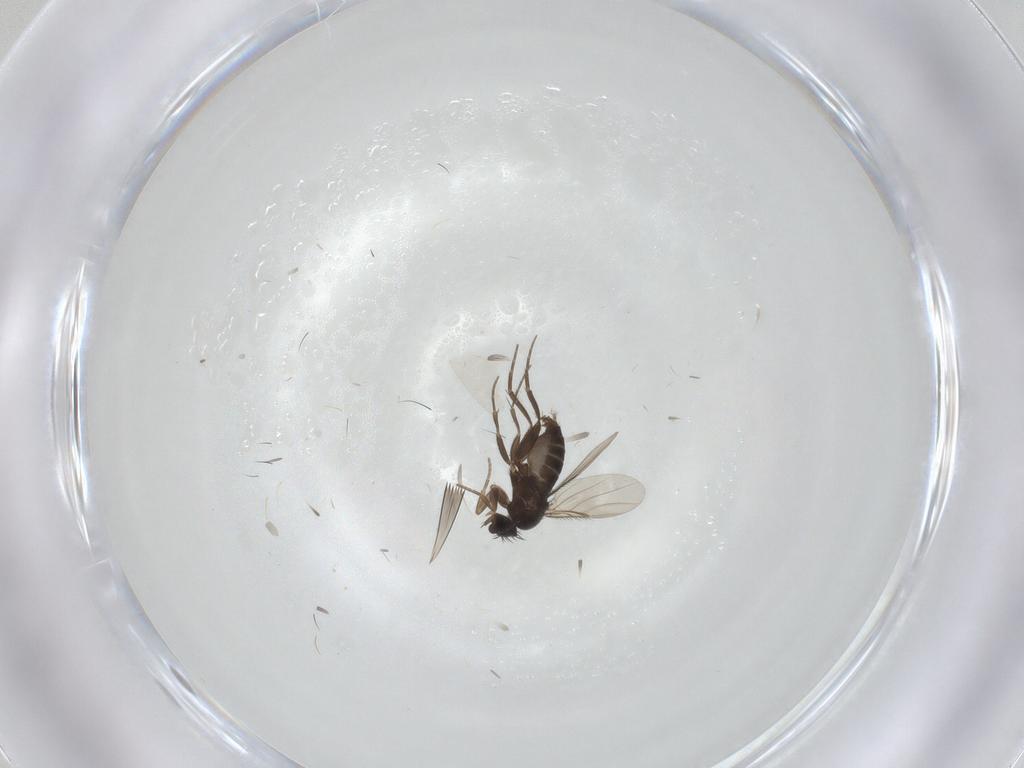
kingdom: Animalia
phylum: Arthropoda
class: Insecta
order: Diptera
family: Phoridae
